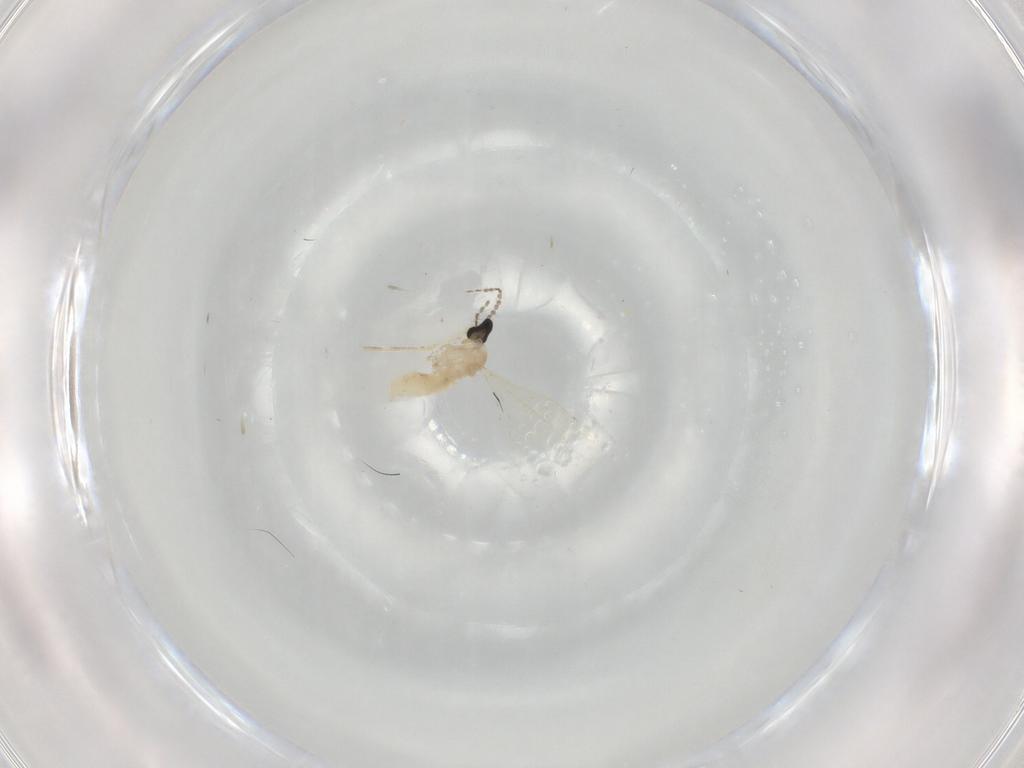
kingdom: Animalia
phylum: Arthropoda
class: Insecta
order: Diptera
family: Cecidomyiidae
